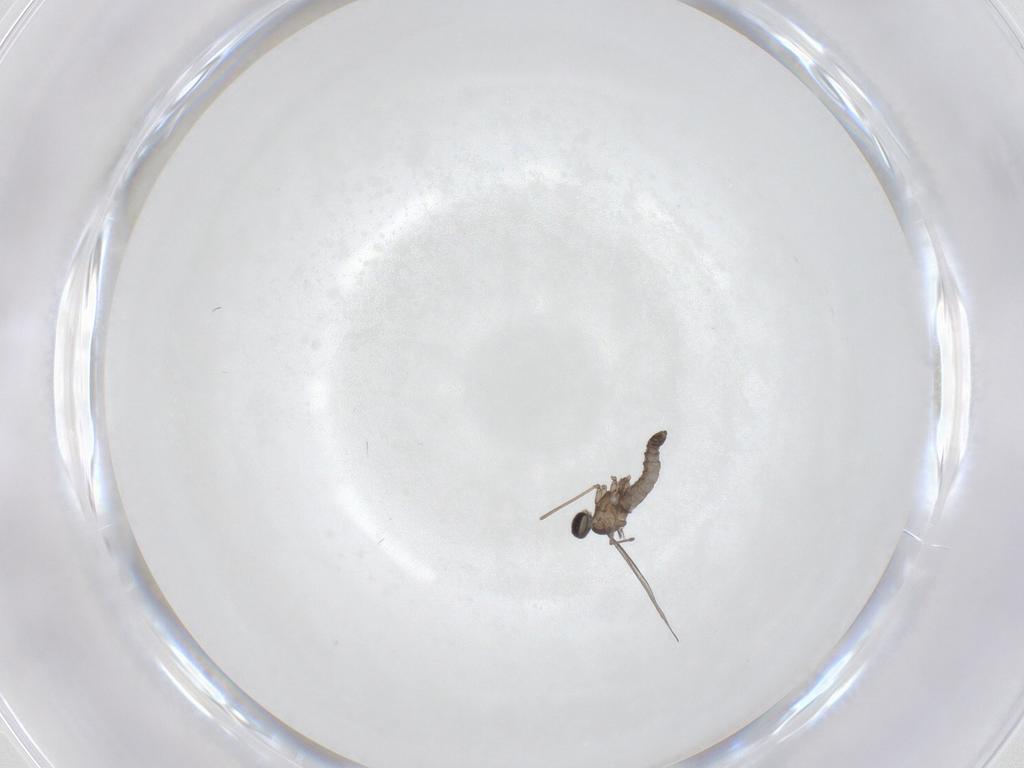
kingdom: Animalia
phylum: Arthropoda
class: Insecta
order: Diptera
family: Cecidomyiidae
